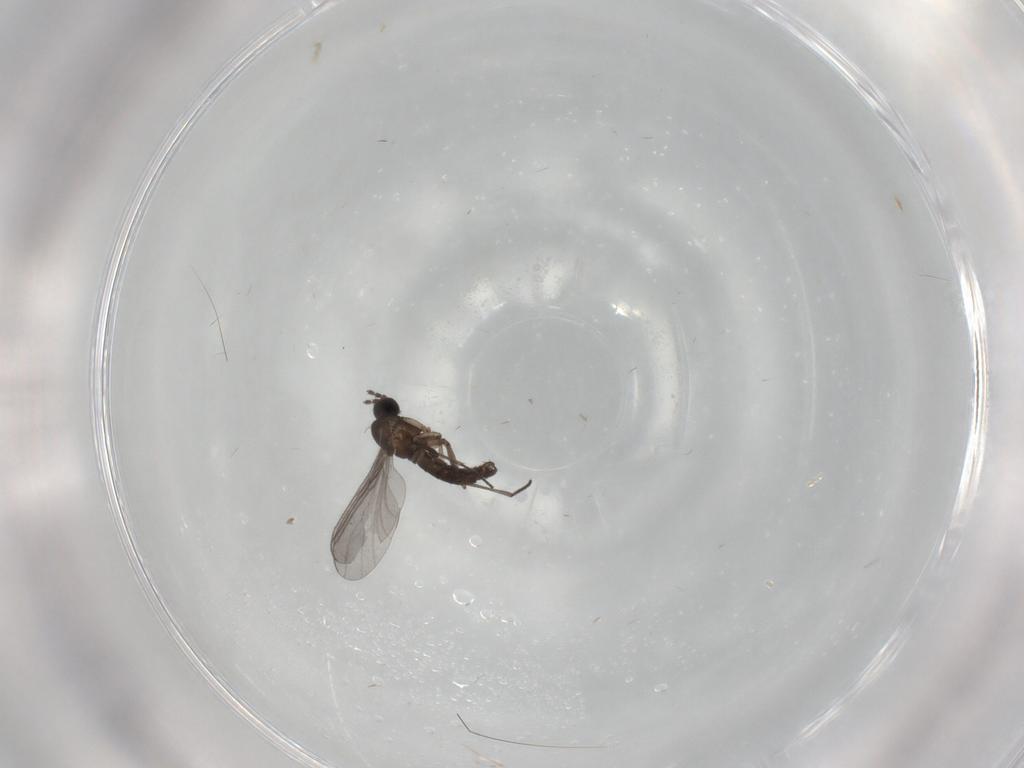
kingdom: Animalia
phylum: Arthropoda
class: Insecta
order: Diptera
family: Sciaridae
